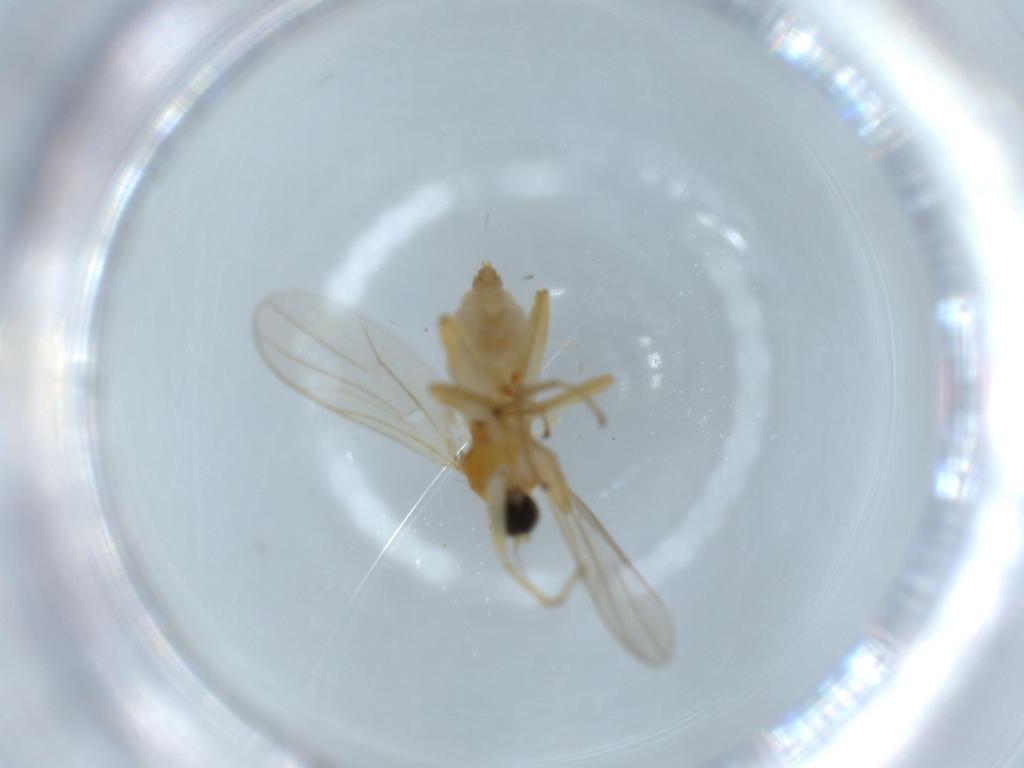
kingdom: Animalia
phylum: Arthropoda
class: Insecta
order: Diptera
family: Hybotidae
